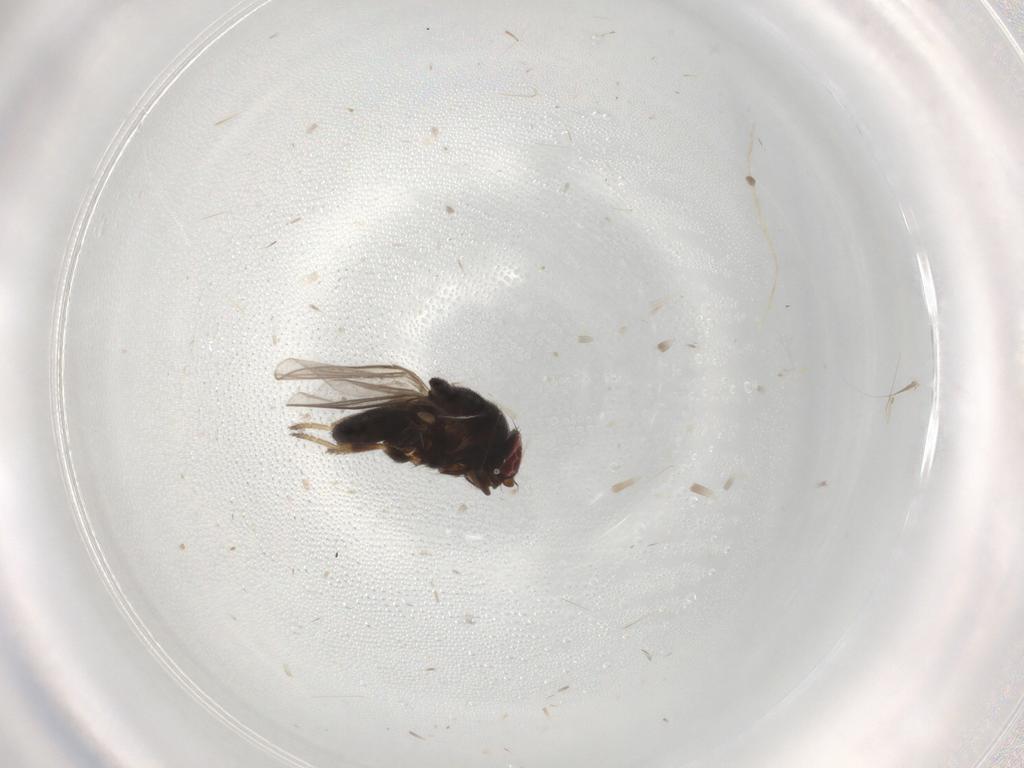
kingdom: Animalia
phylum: Arthropoda
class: Insecta
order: Diptera
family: Chloropidae
